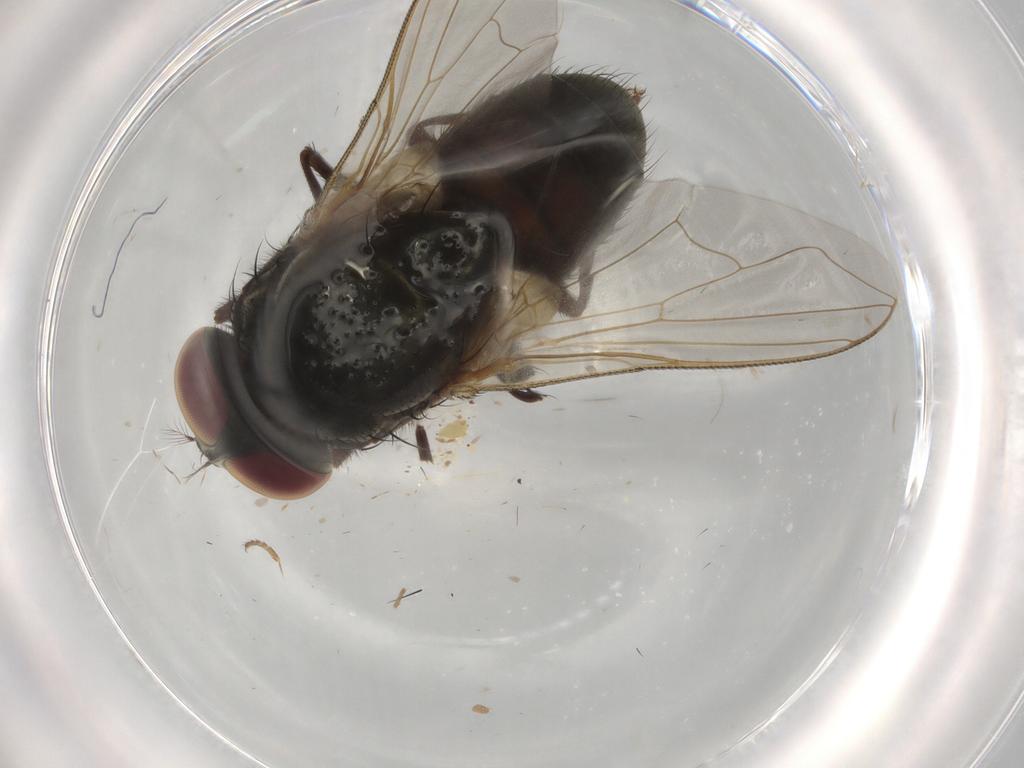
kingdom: Animalia
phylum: Arthropoda
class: Insecta
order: Diptera
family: Muscidae
